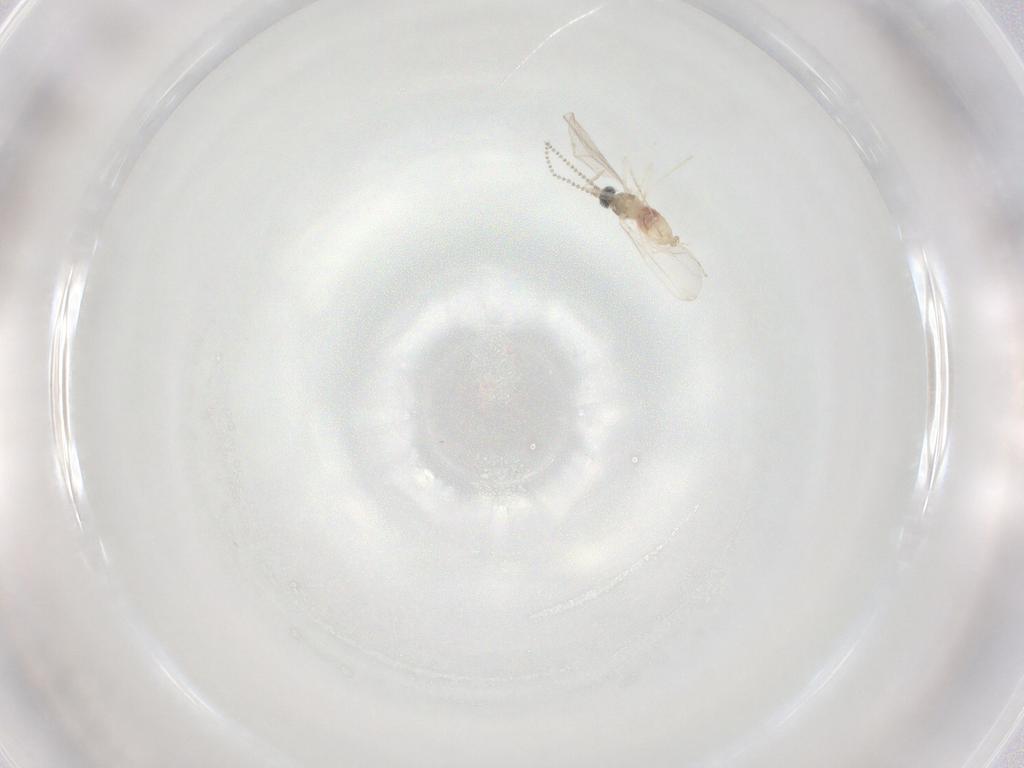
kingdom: Animalia
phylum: Arthropoda
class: Insecta
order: Diptera
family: Cecidomyiidae
